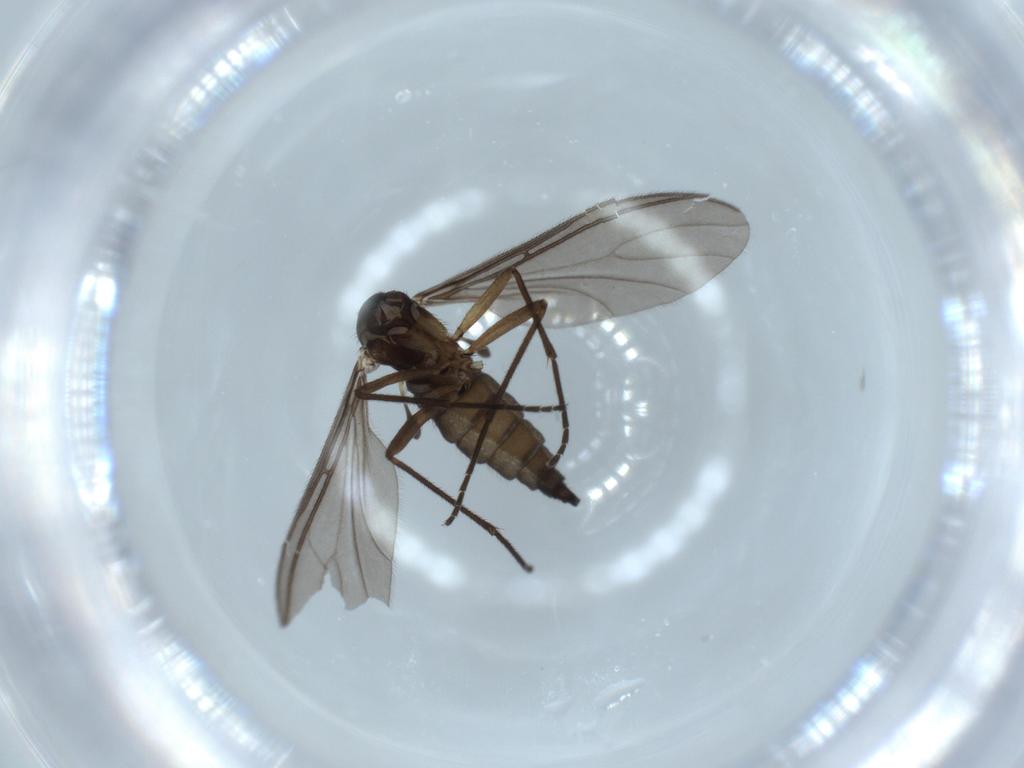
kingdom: Animalia
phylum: Arthropoda
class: Insecta
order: Diptera
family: Sciaridae
